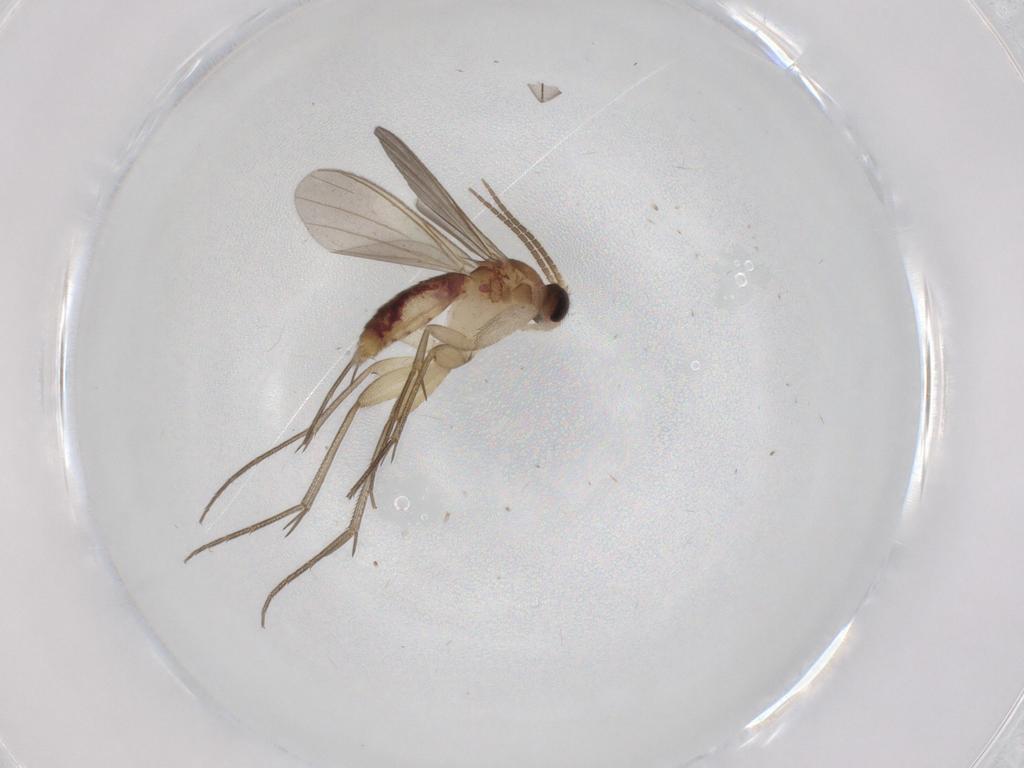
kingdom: Animalia
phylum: Arthropoda
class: Insecta
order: Diptera
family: Mycetophilidae
